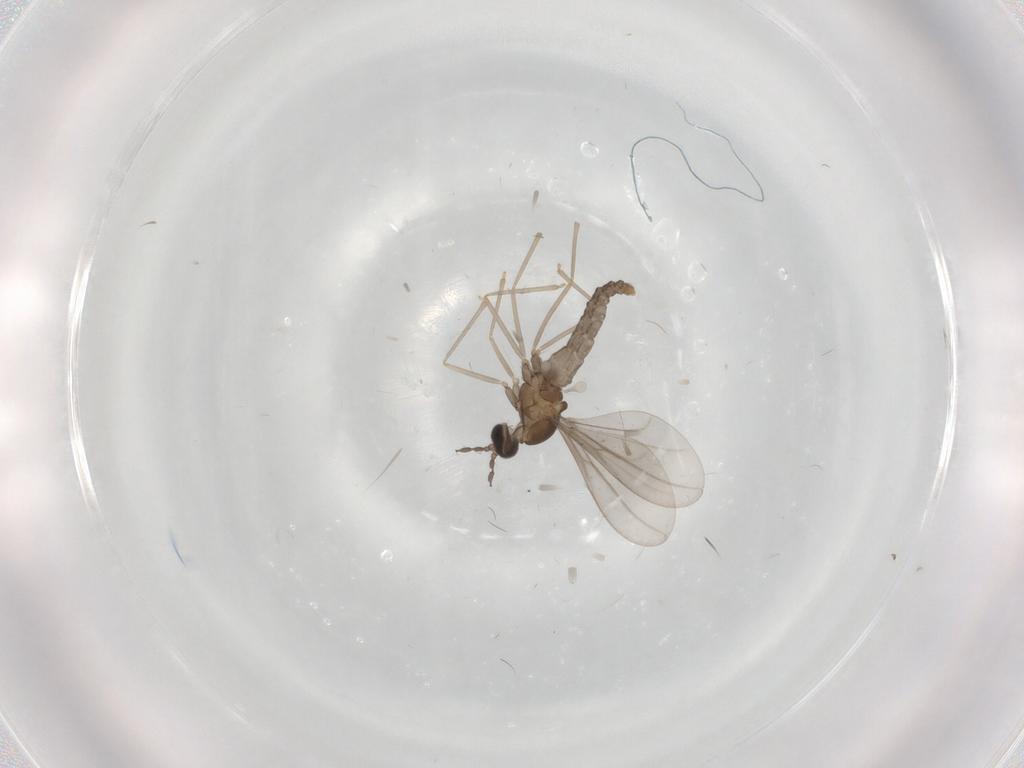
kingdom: Animalia
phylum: Arthropoda
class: Insecta
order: Diptera
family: Cecidomyiidae
